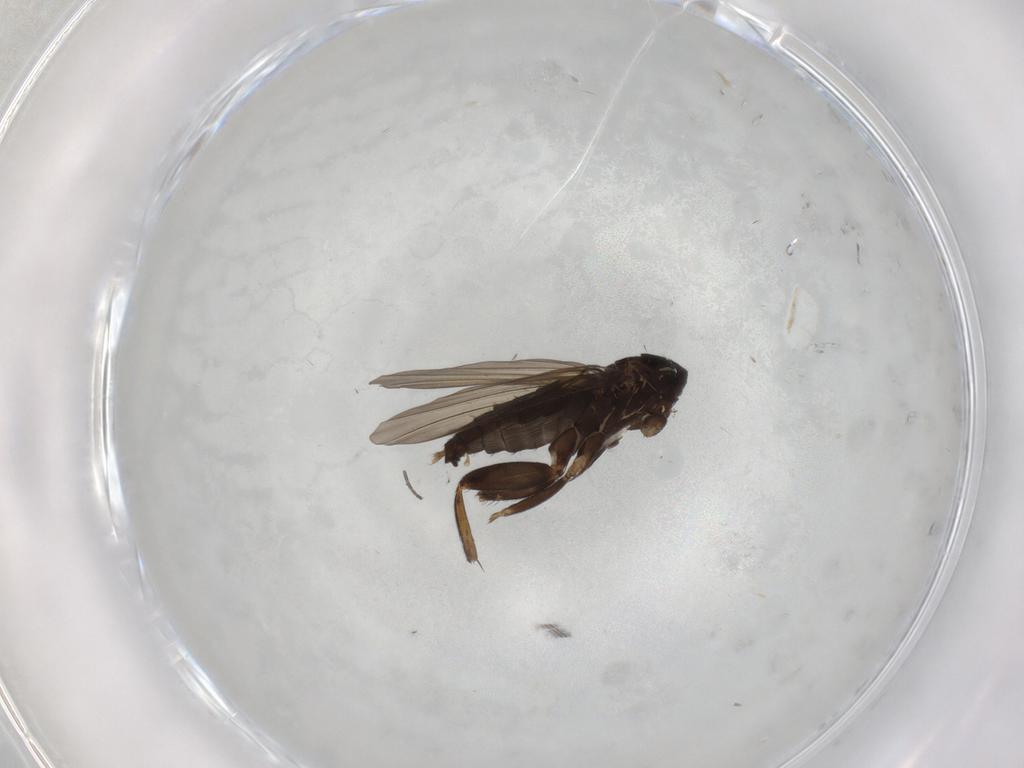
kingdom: Animalia
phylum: Arthropoda
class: Insecta
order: Diptera
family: Phoridae
